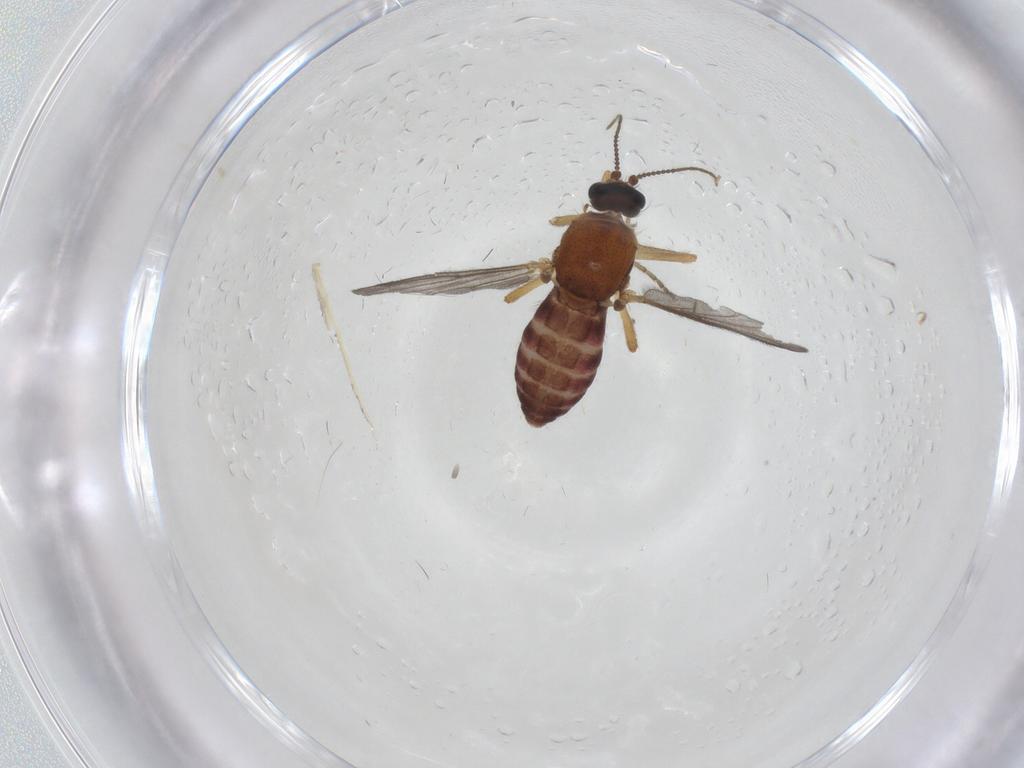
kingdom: Animalia
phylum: Arthropoda
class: Insecta
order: Diptera
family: Ceratopogonidae
